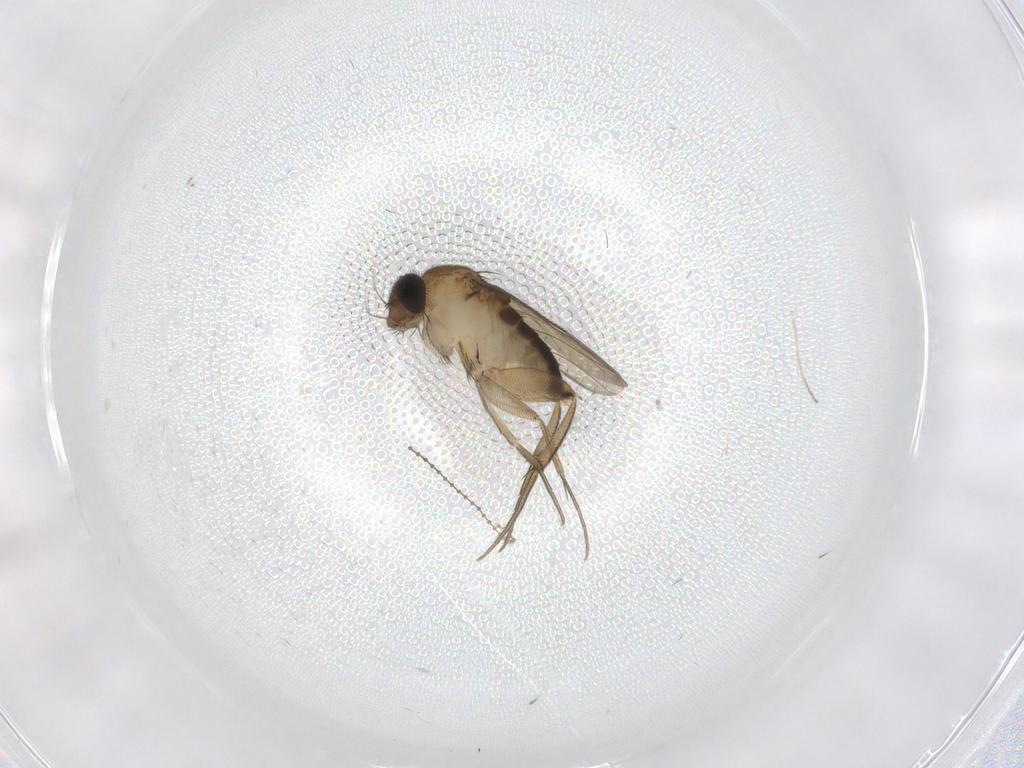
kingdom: Animalia
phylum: Arthropoda
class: Insecta
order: Diptera
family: Phoridae
